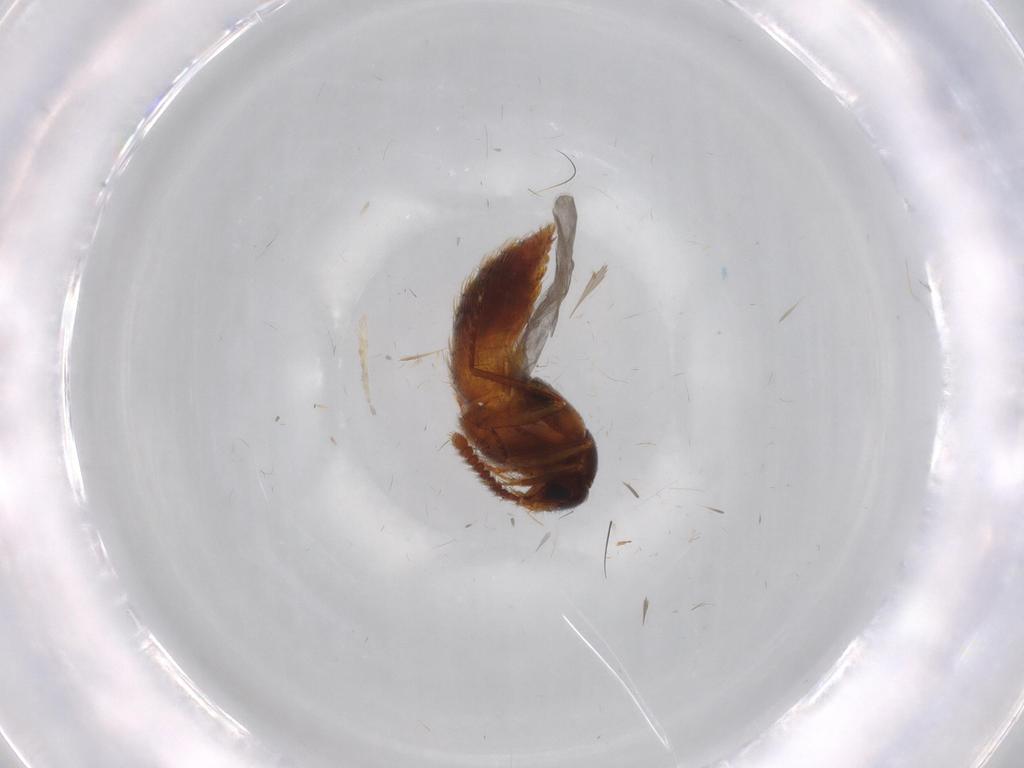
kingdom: Animalia
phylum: Arthropoda
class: Insecta
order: Coleoptera
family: Staphylinidae
